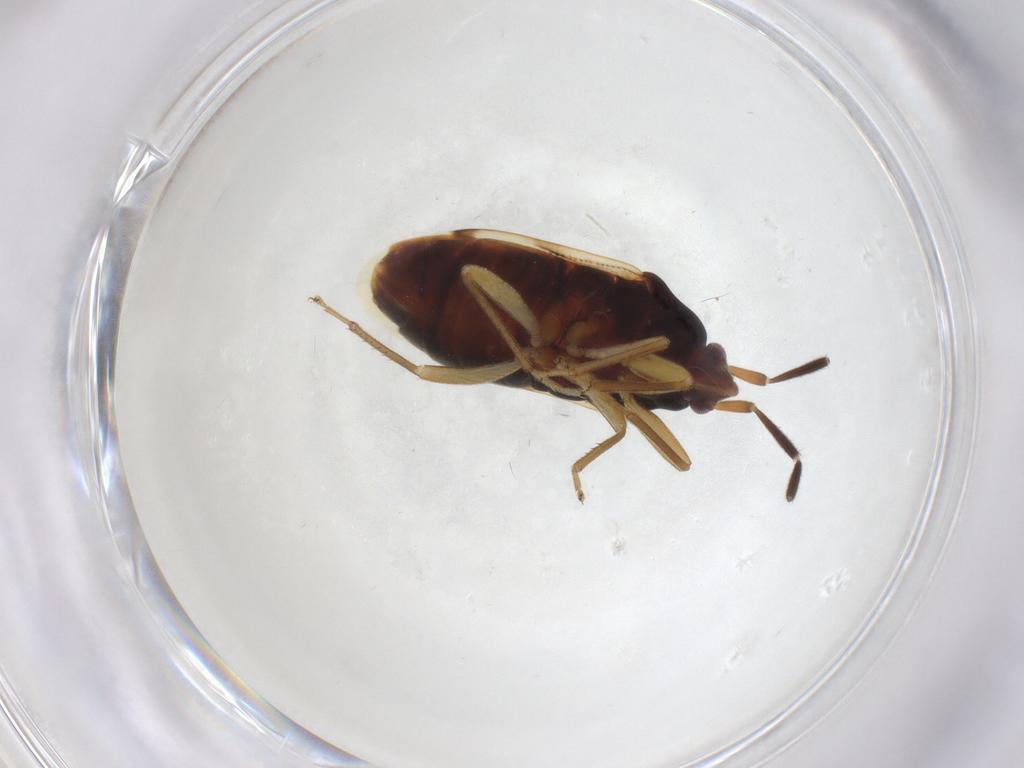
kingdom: Animalia
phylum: Arthropoda
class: Insecta
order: Hemiptera
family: Rhyparochromidae
